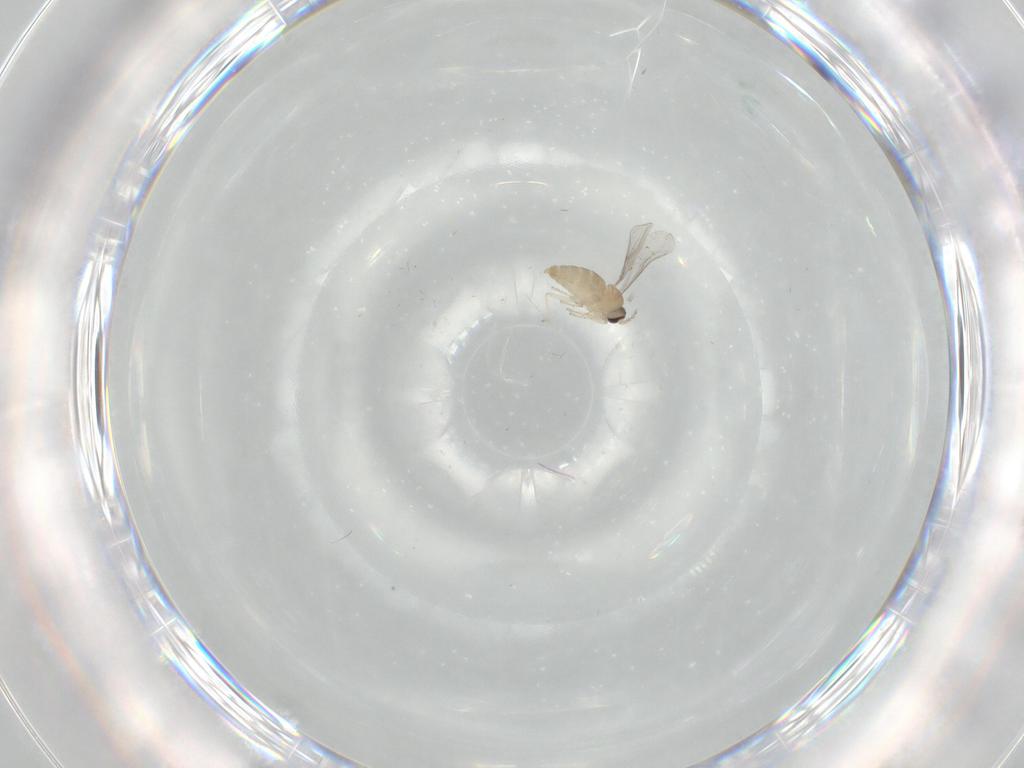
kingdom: Animalia
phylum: Arthropoda
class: Insecta
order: Diptera
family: Cecidomyiidae
